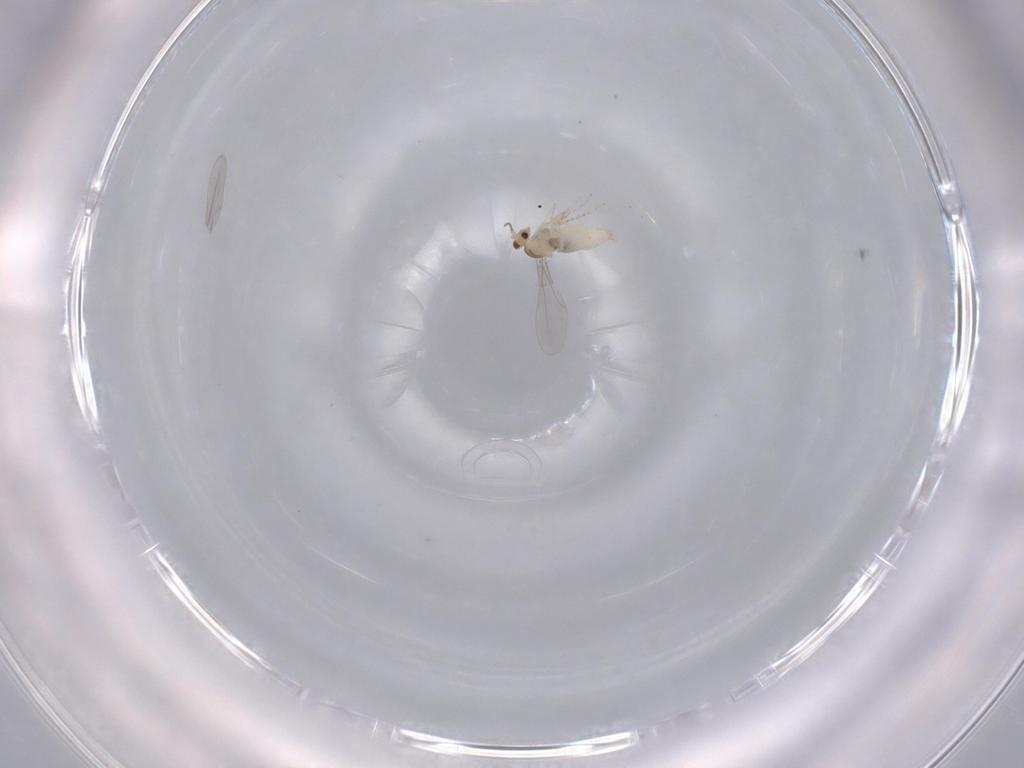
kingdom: Animalia
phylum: Arthropoda
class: Insecta
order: Diptera
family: Cecidomyiidae
